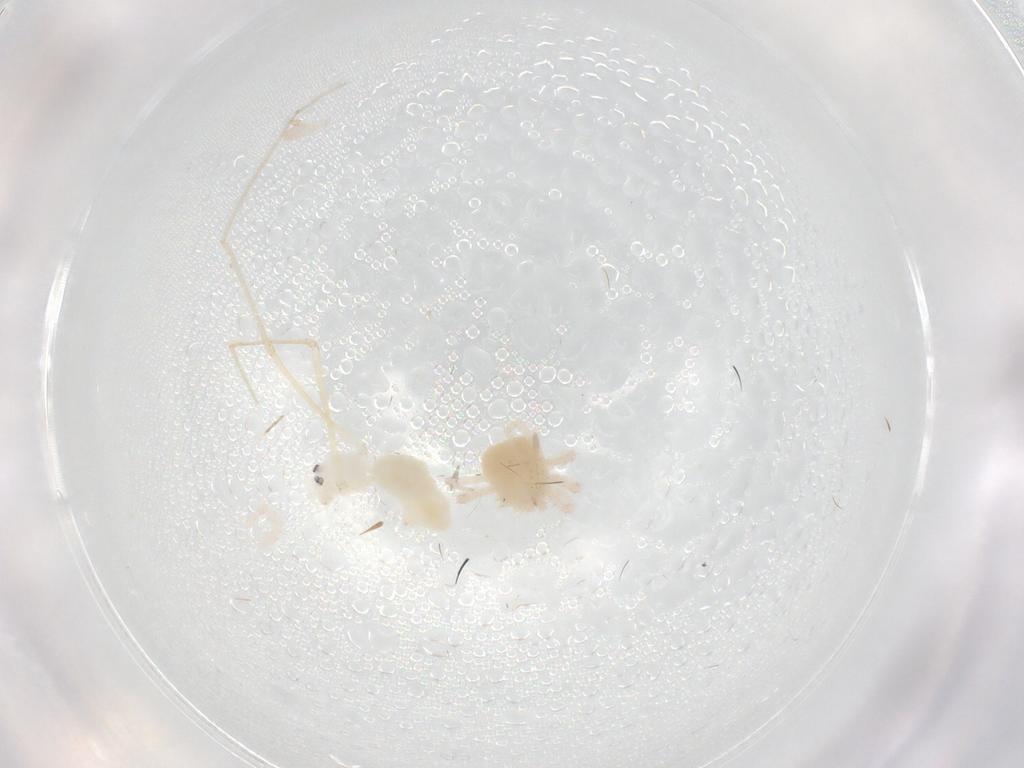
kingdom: Animalia
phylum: Arthropoda
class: Arachnida
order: Araneae
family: Pholcidae
